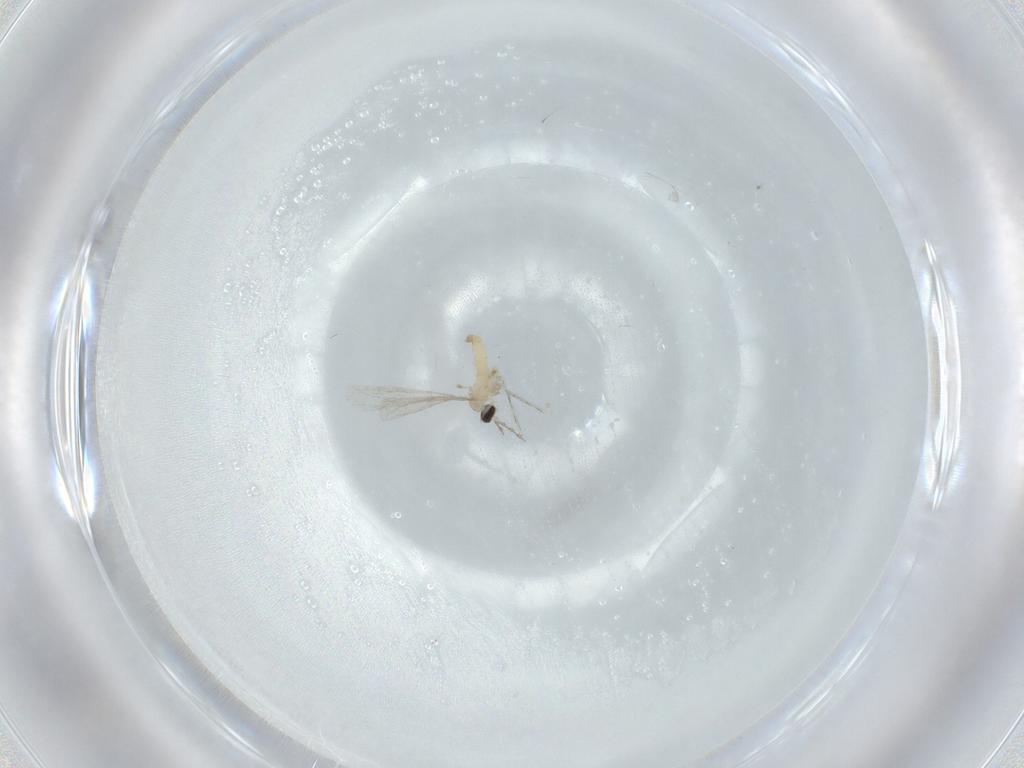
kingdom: Animalia
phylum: Arthropoda
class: Insecta
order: Diptera
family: Cecidomyiidae
